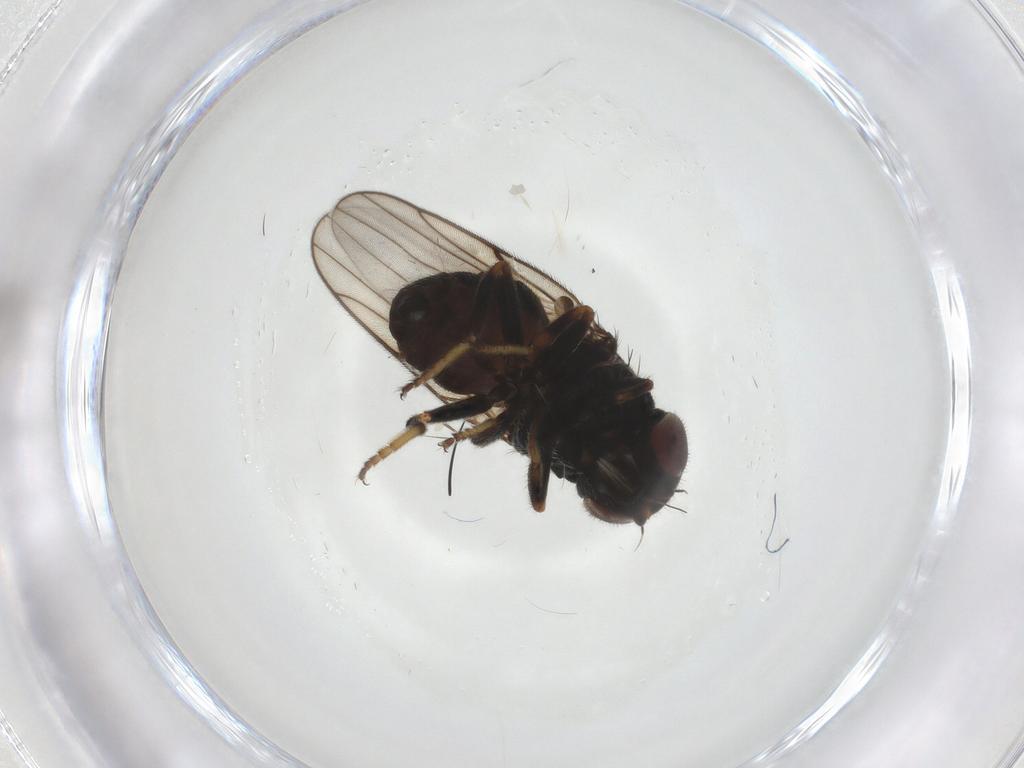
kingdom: Animalia
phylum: Arthropoda
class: Insecta
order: Diptera
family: Chloropidae
